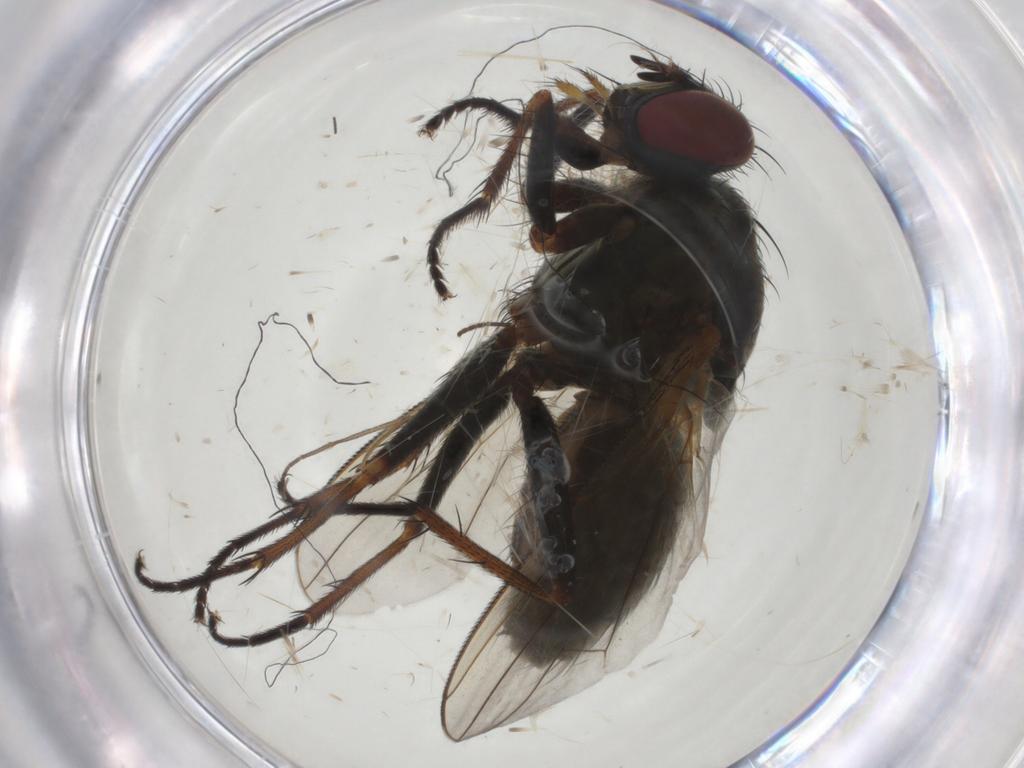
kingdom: Animalia
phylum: Arthropoda
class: Insecta
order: Diptera
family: Muscidae
